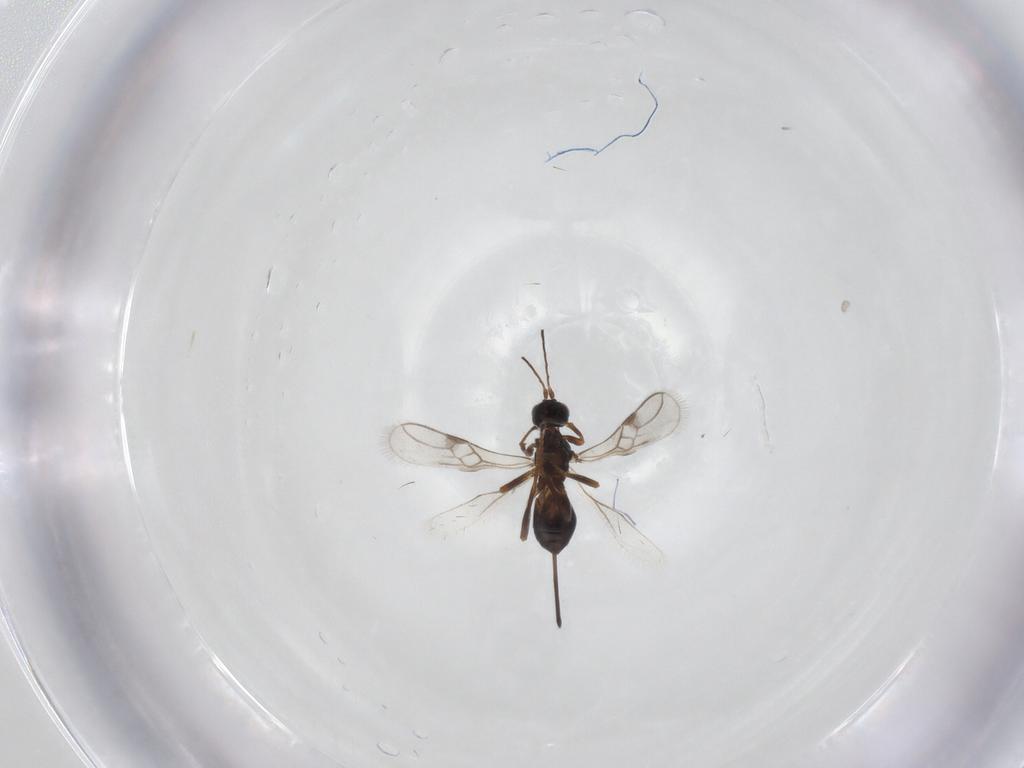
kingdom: Animalia
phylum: Arthropoda
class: Insecta
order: Hymenoptera
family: Braconidae
